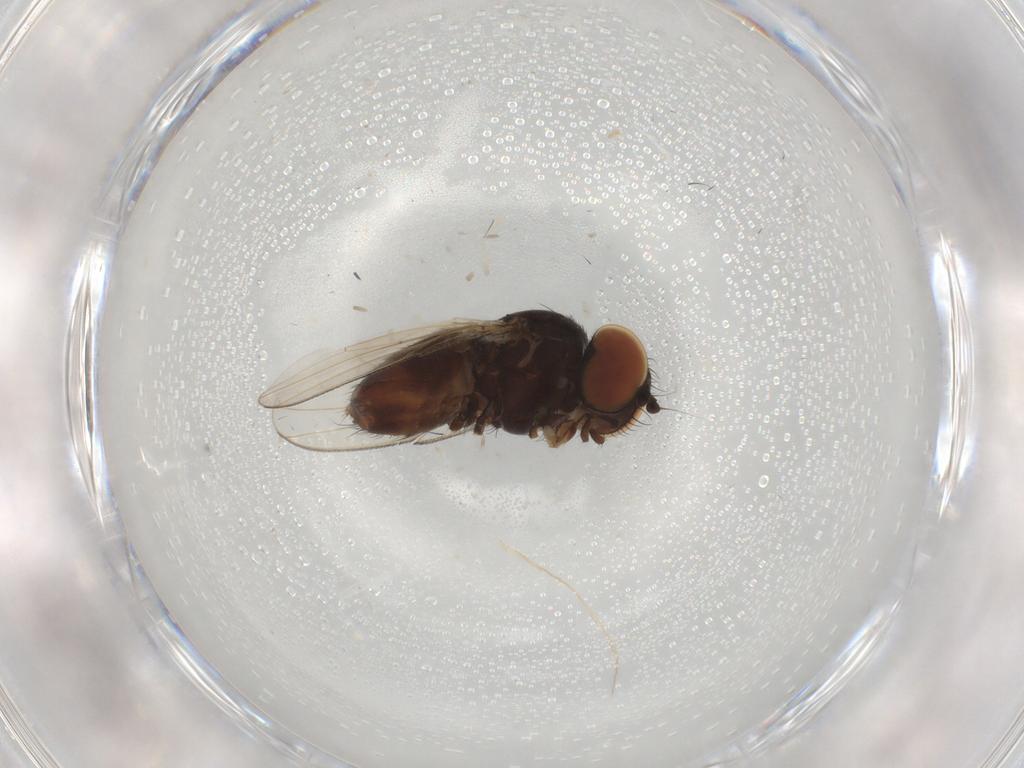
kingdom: Animalia
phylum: Arthropoda
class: Insecta
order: Diptera
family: Milichiidae
